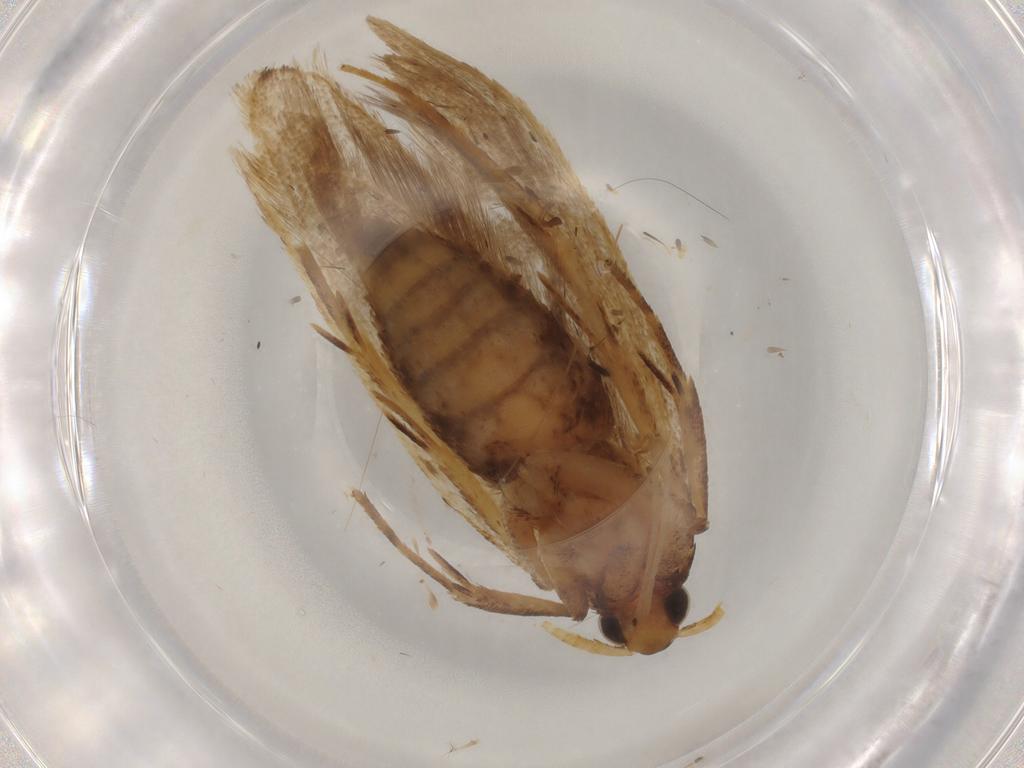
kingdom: Animalia
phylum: Arthropoda
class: Insecta
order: Lepidoptera
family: Lecithoceridae
